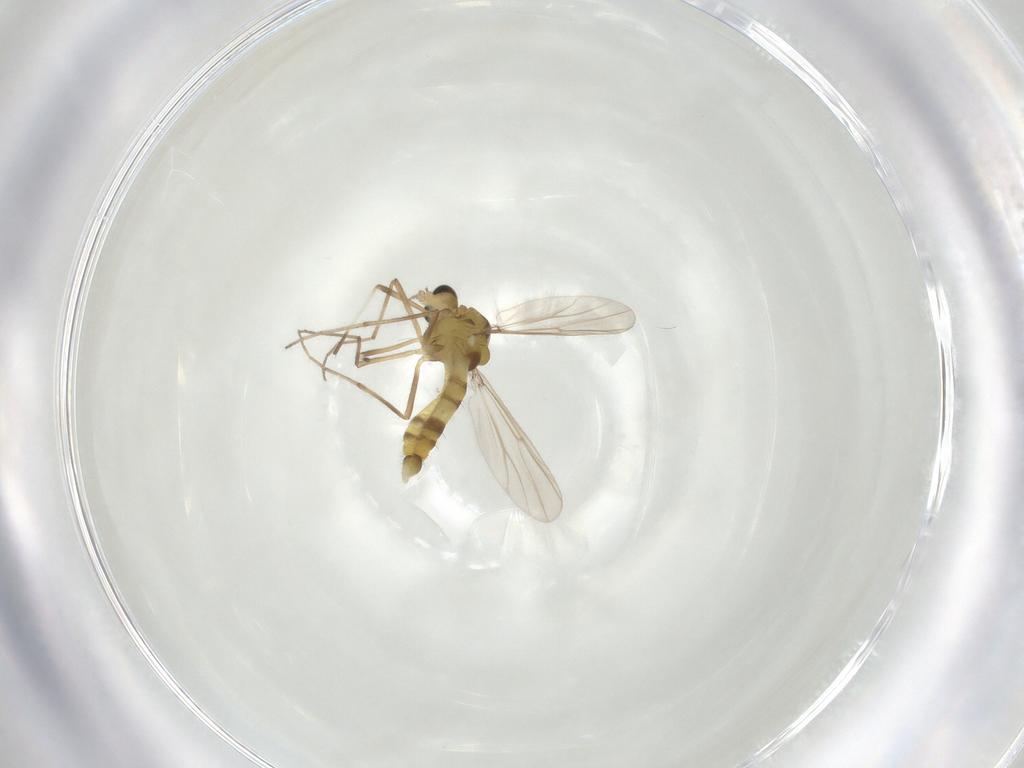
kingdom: Animalia
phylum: Arthropoda
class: Insecta
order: Diptera
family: Chironomidae
